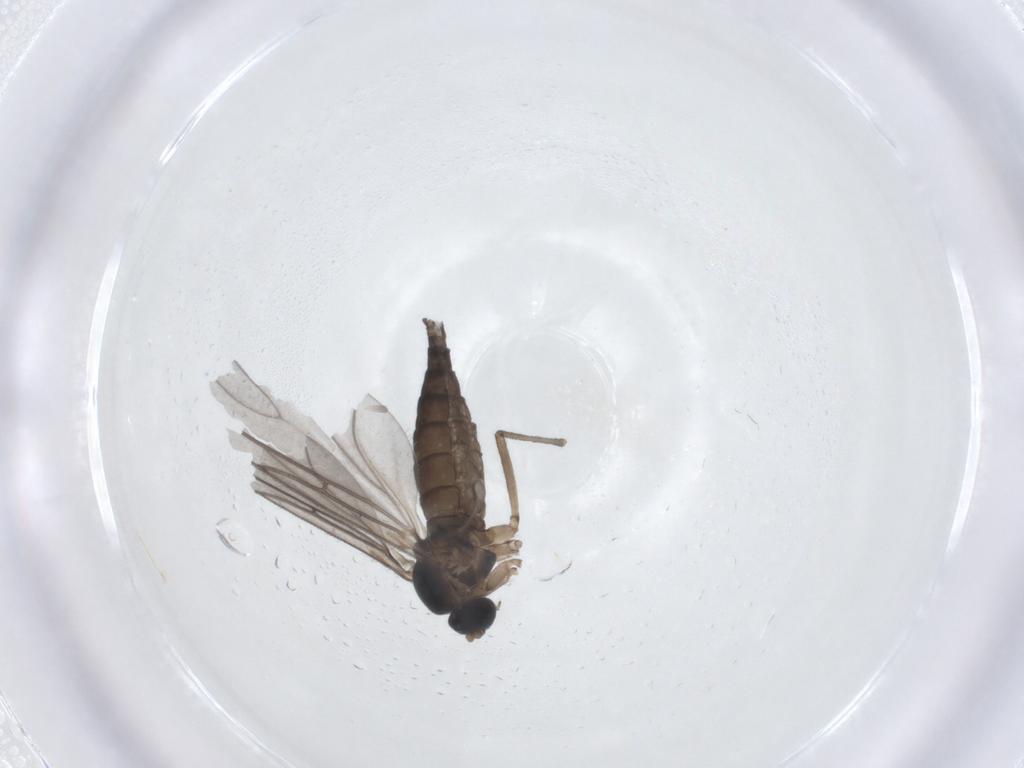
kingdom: Animalia
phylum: Arthropoda
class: Insecta
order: Diptera
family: Sciaridae
